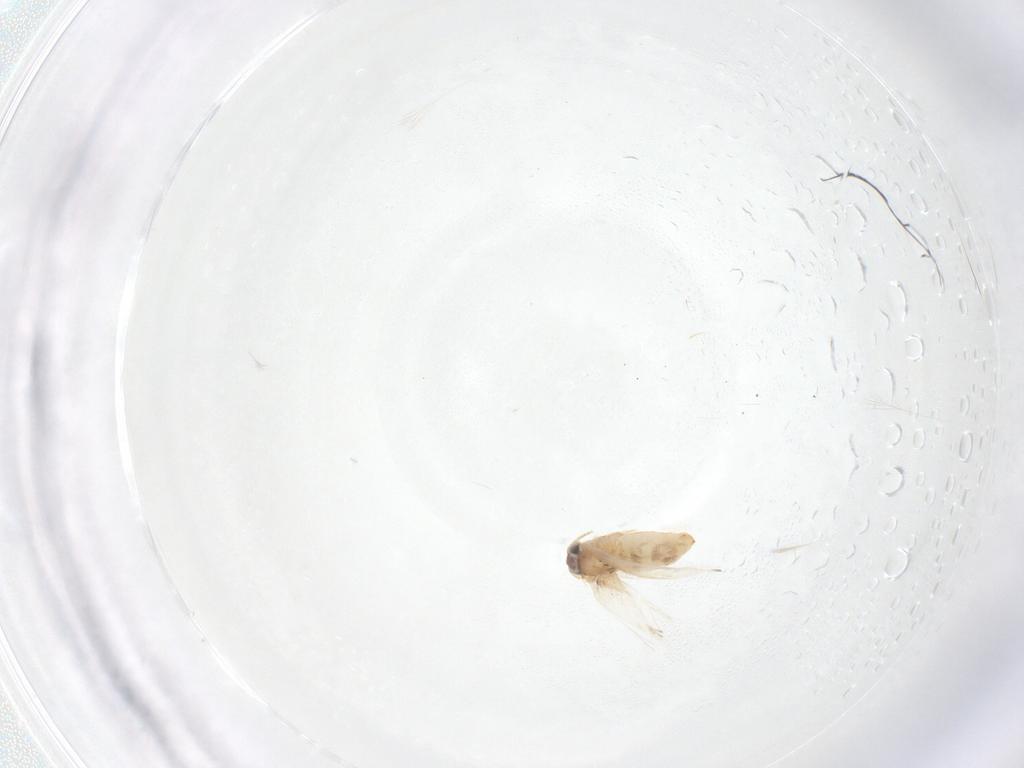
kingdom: Animalia
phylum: Arthropoda
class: Insecta
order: Lepidoptera
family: Crambidae
